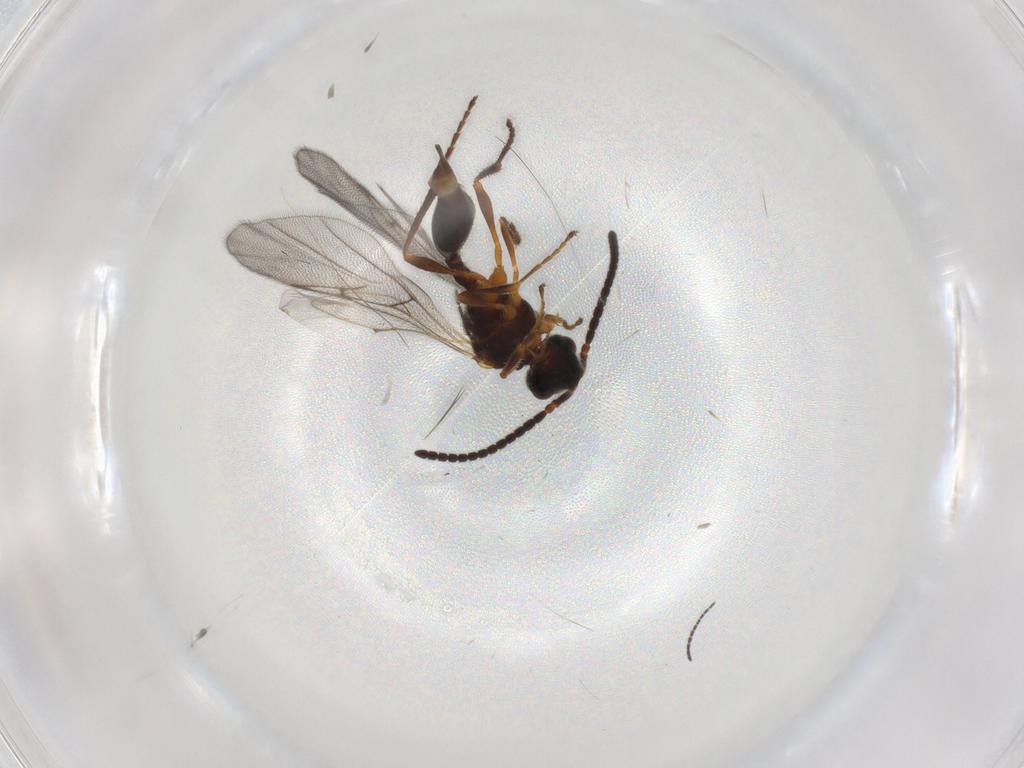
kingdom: Animalia
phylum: Arthropoda
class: Insecta
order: Hymenoptera
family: Diapriidae
